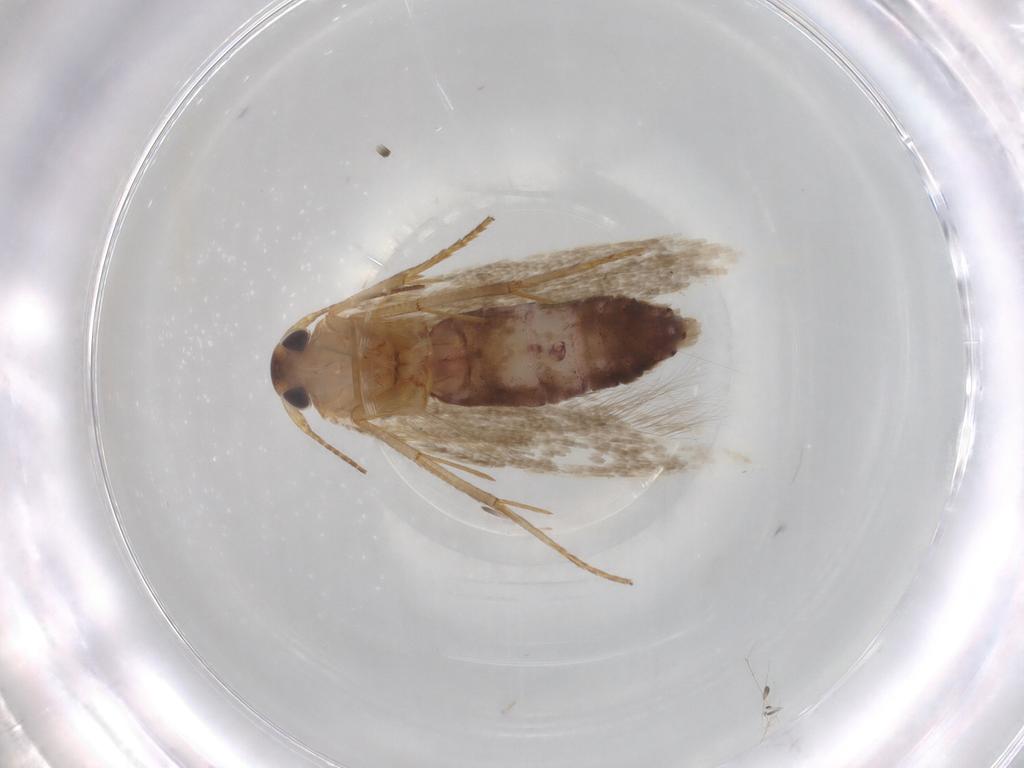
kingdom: Animalia
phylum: Arthropoda
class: Insecta
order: Lepidoptera
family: Oecophoridae
